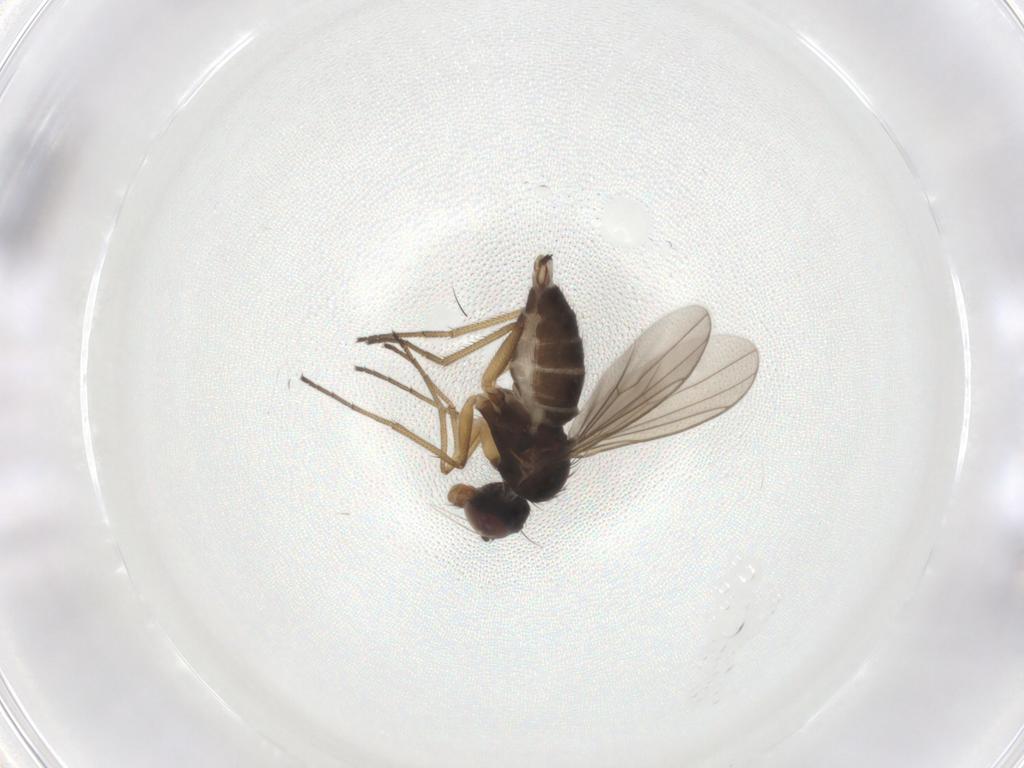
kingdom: Animalia
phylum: Arthropoda
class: Insecta
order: Diptera
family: Dolichopodidae
